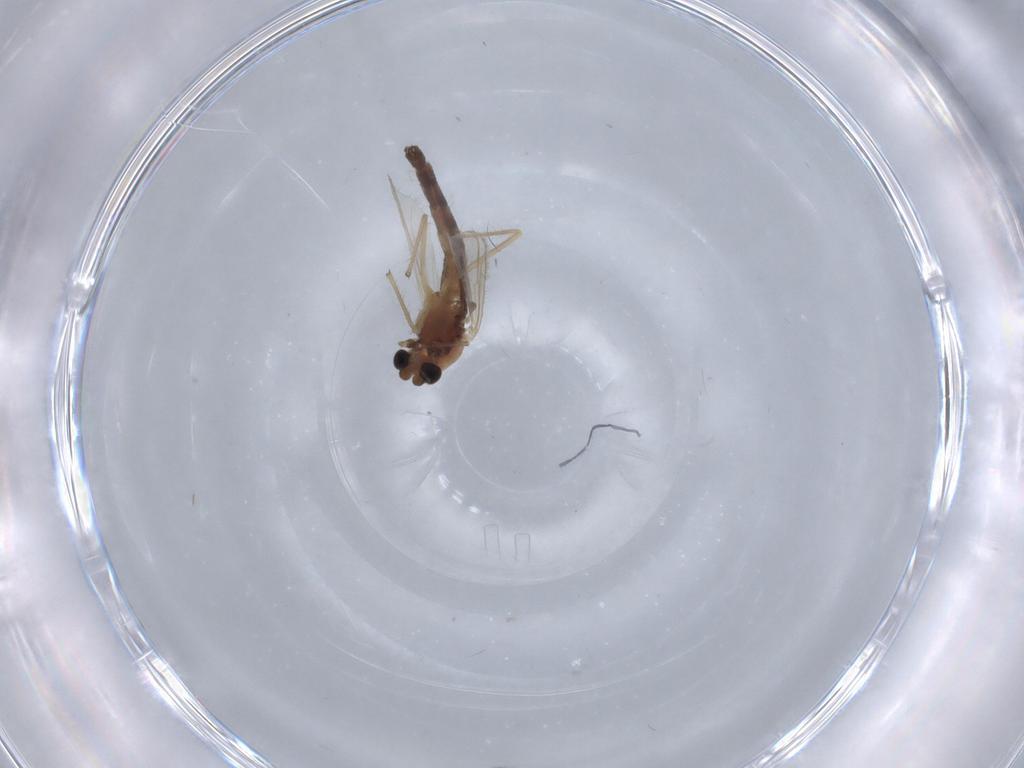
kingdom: Animalia
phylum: Arthropoda
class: Insecta
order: Diptera
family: Chironomidae
